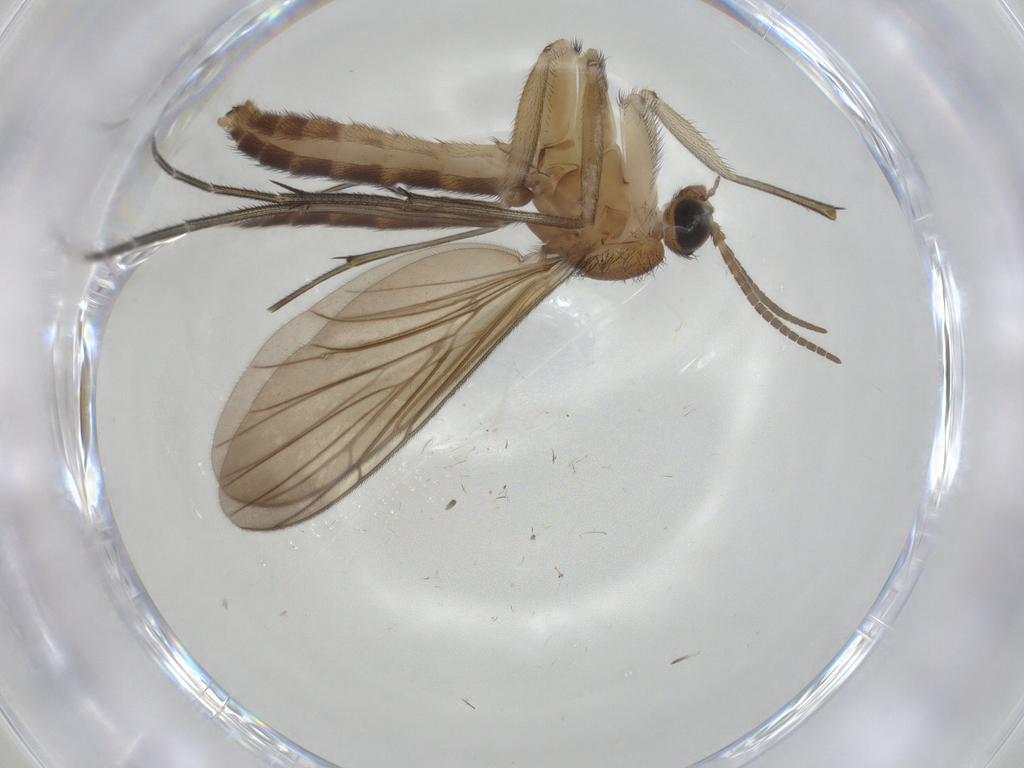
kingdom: Animalia
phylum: Arthropoda
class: Insecta
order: Diptera
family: Keroplatidae
